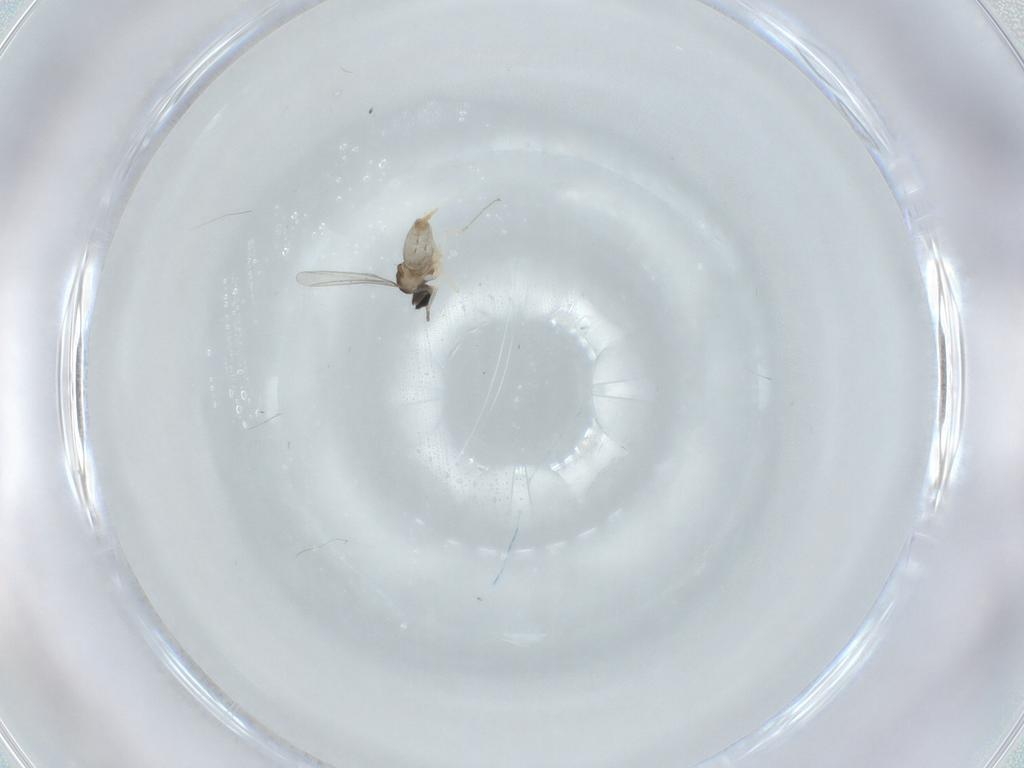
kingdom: Animalia
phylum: Arthropoda
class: Insecta
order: Diptera
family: Cecidomyiidae
